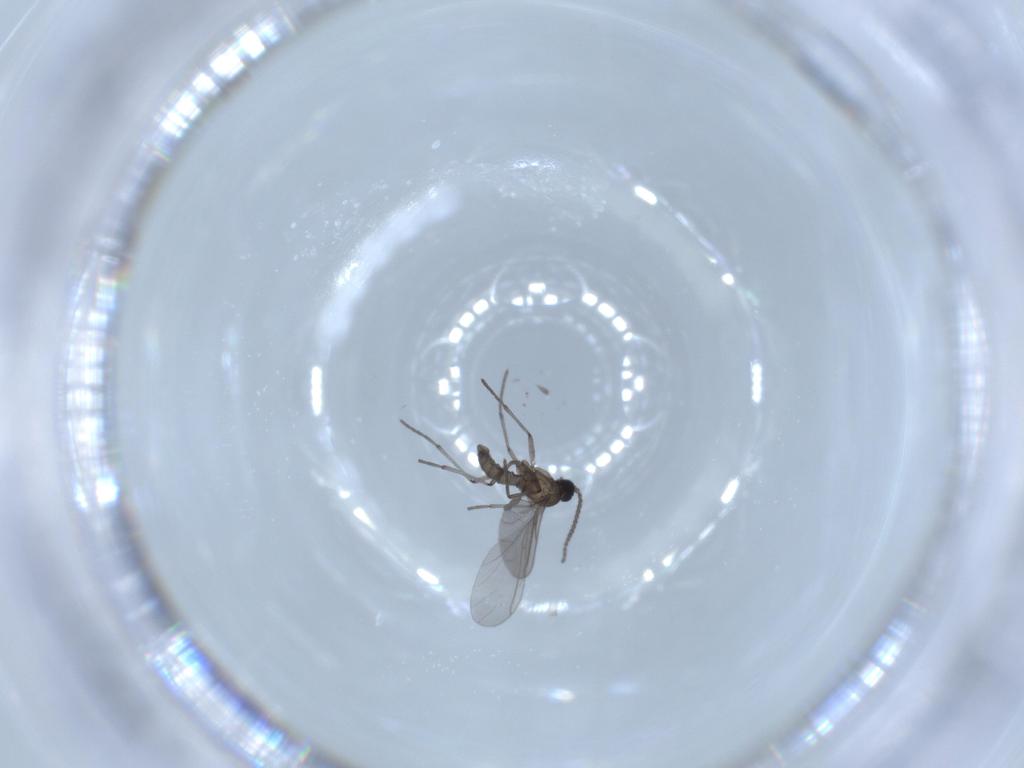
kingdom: Animalia
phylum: Arthropoda
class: Insecta
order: Diptera
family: Sciaridae
